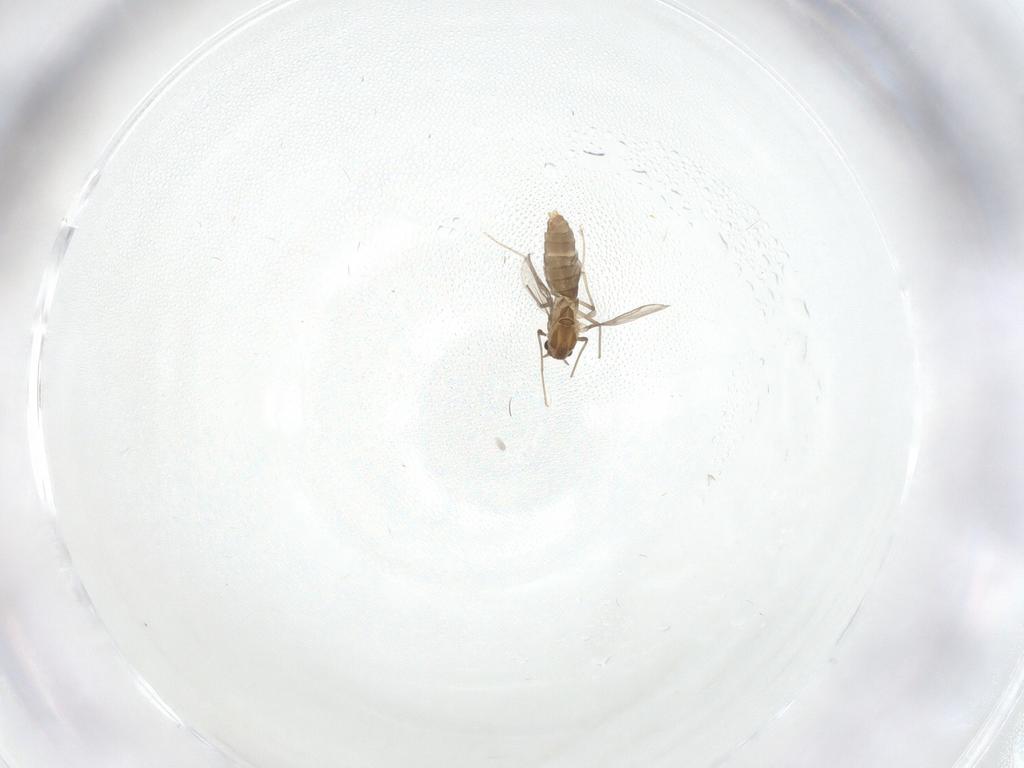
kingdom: Animalia
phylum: Arthropoda
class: Insecta
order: Diptera
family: Cecidomyiidae
